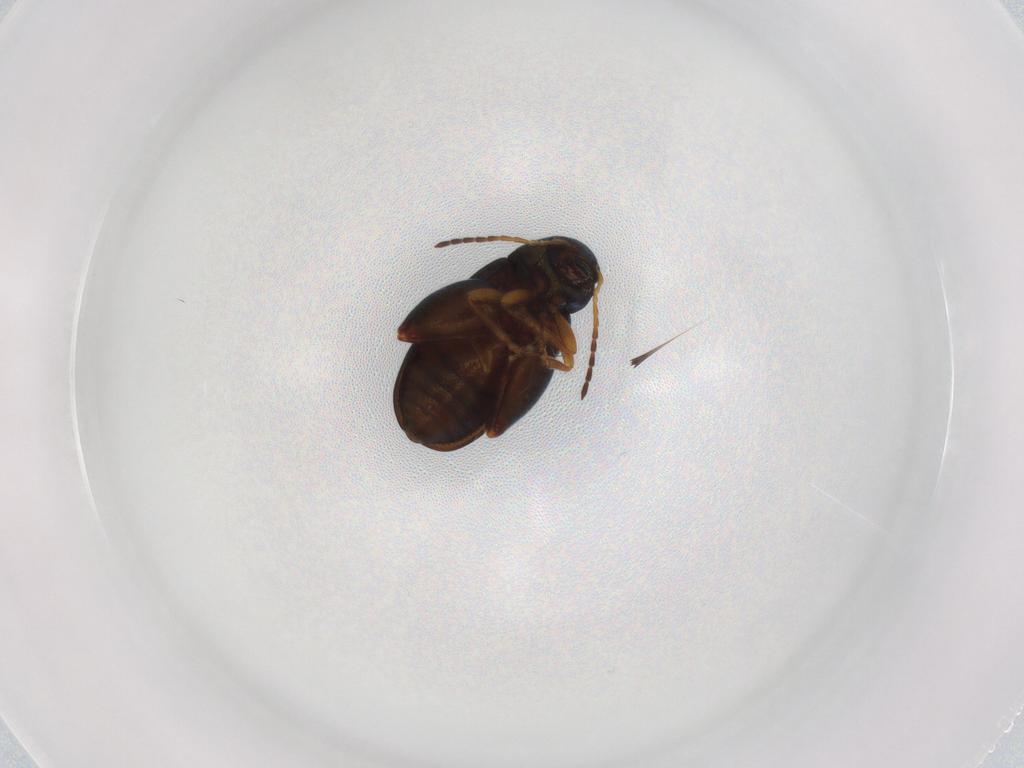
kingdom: Animalia
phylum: Arthropoda
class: Insecta
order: Coleoptera
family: Chrysomelidae
